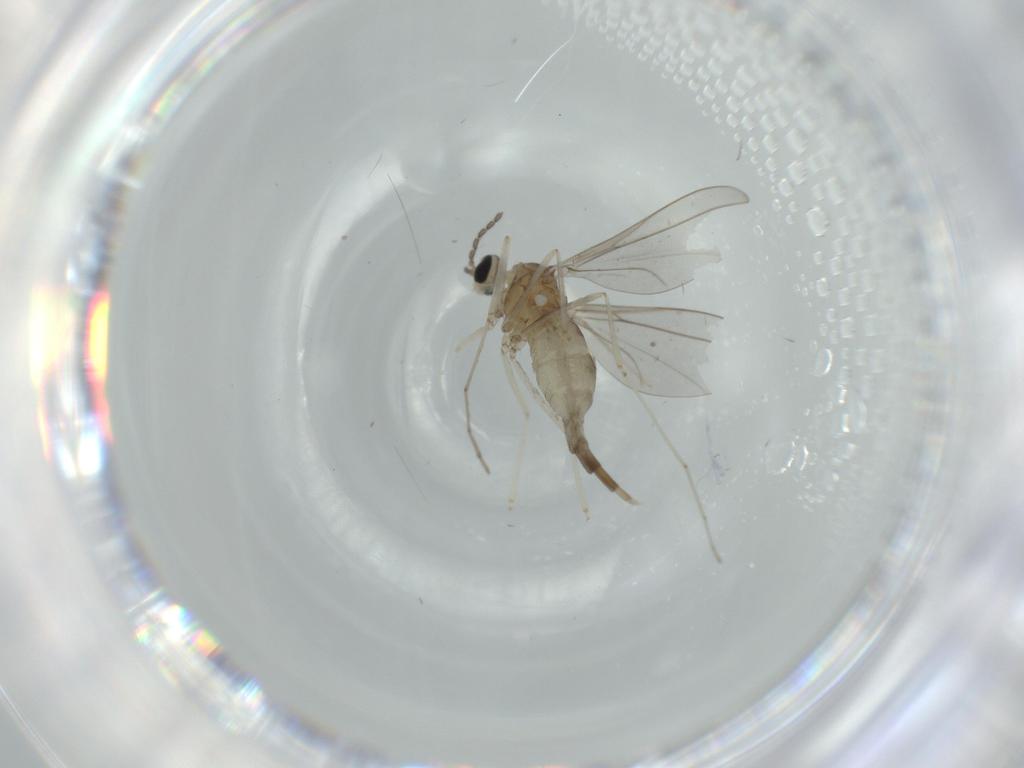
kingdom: Animalia
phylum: Arthropoda
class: Insecta
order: Diptera
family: Cecidomyiidae
